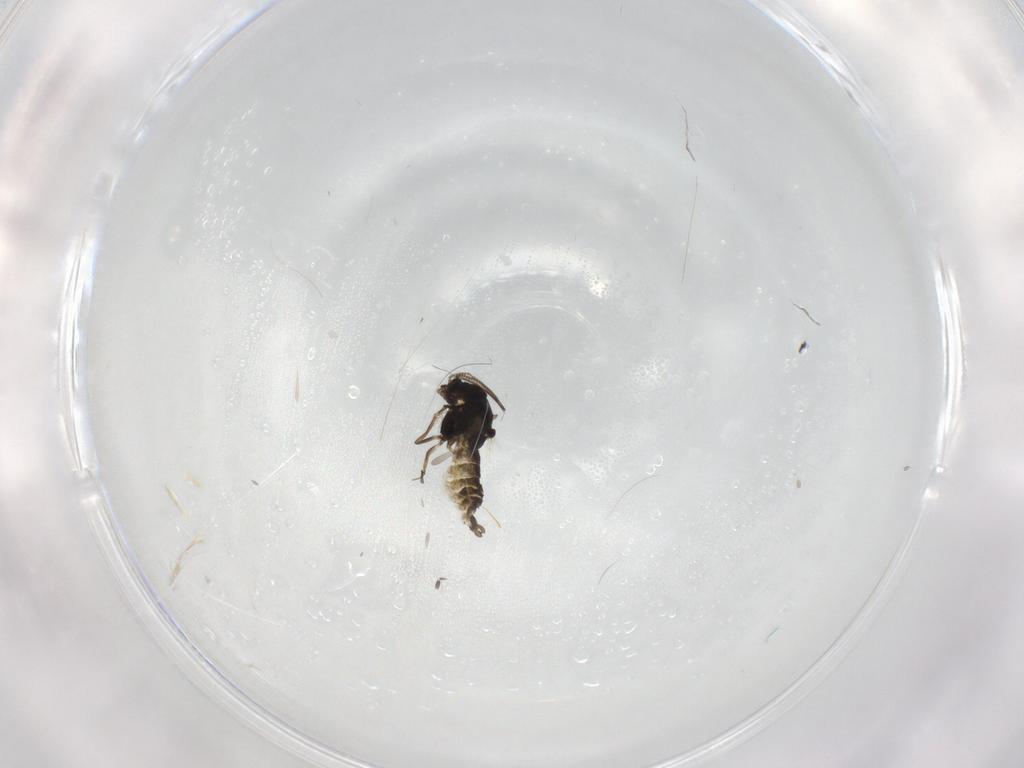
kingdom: Animalia
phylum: Arthropoda
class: Insecta
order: Diptera
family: Chironomidae
